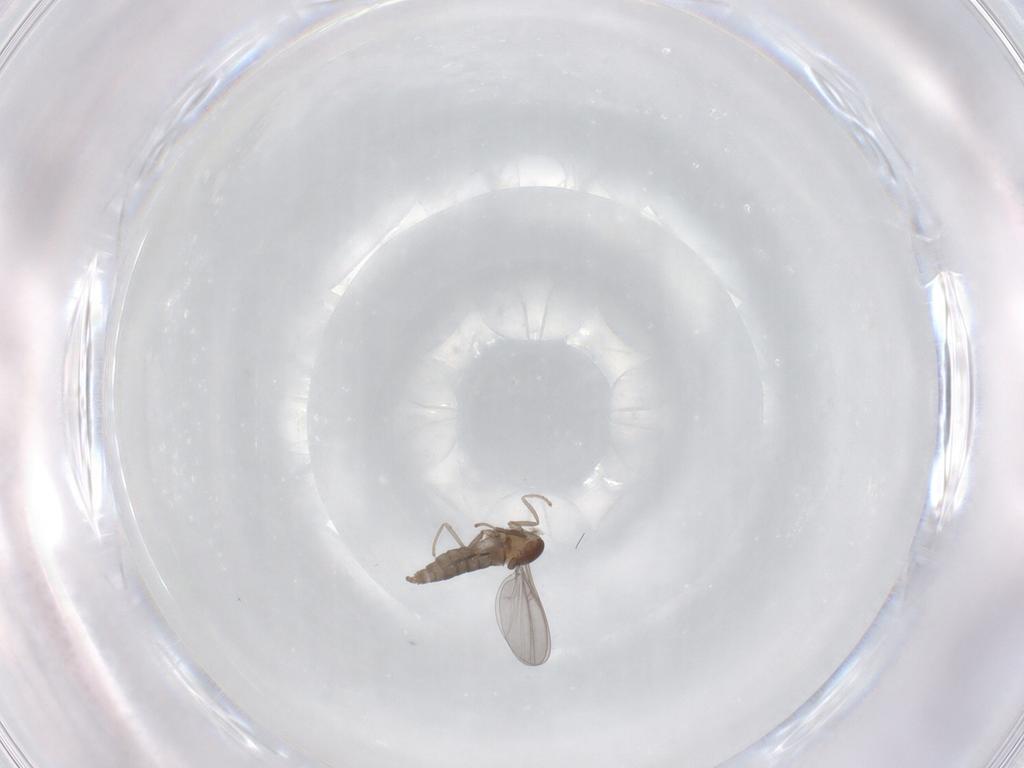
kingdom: Animalia
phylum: Arthropoda
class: Insecta
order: Diptera
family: Cecidomyiidae
